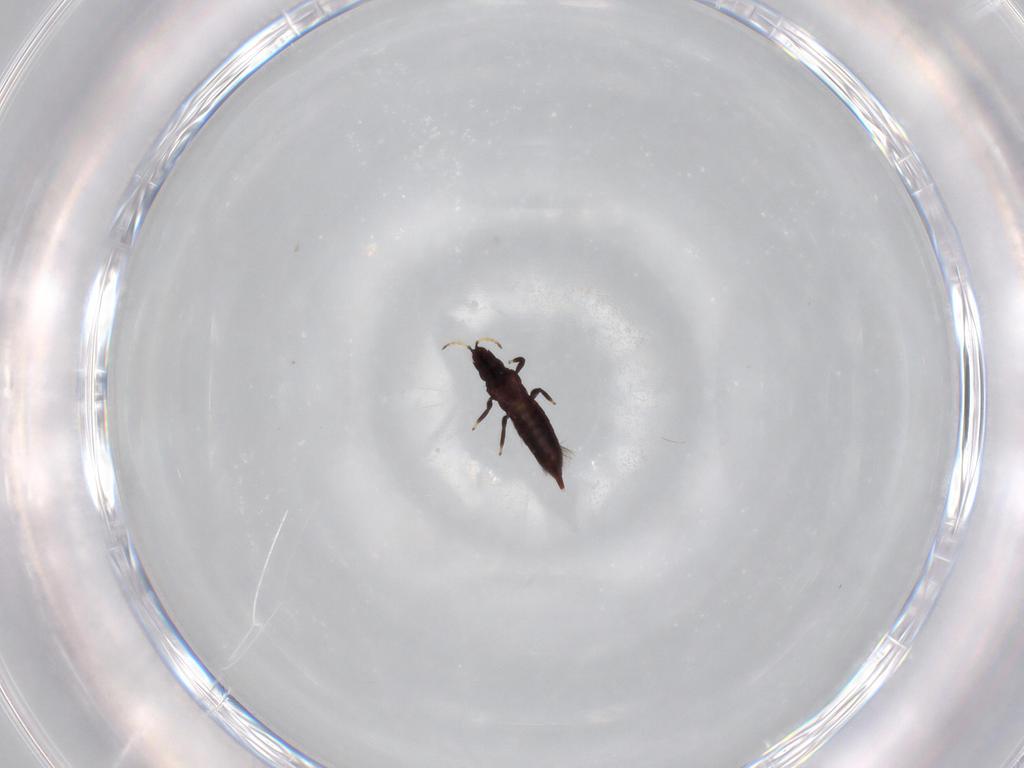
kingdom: Animalia
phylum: Arthropoda
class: Insecta
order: Thysanoptera
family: Phlaeothripidae
